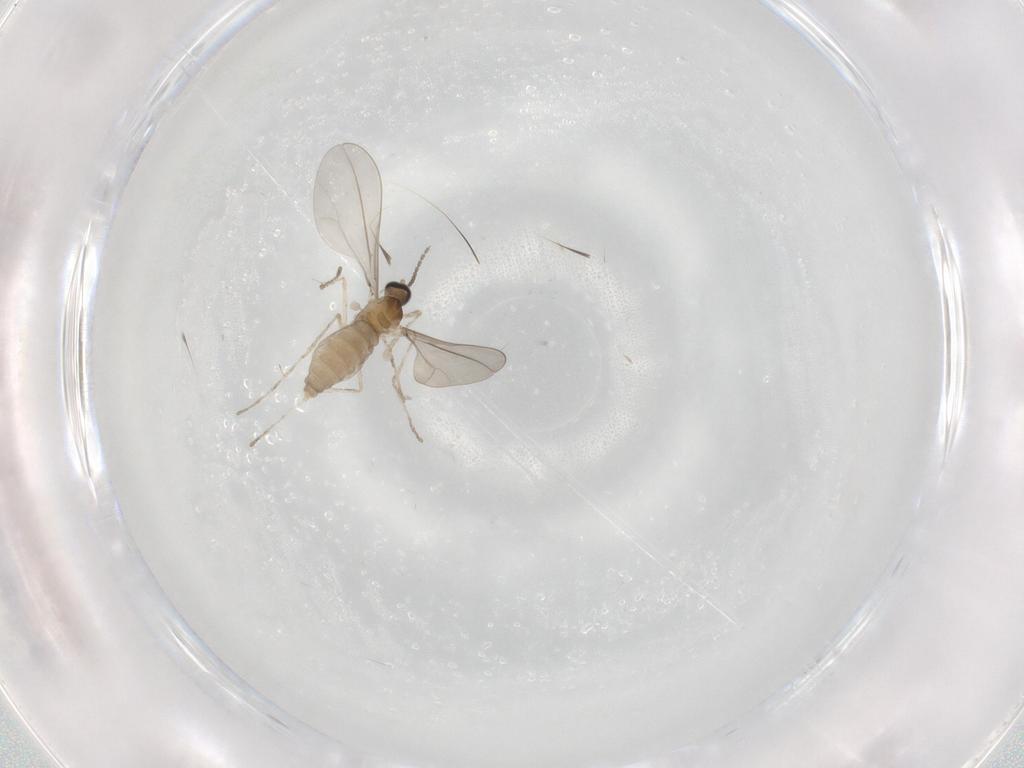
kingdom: Animalia
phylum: Arthropoda
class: Insecta
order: Diptera
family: Cecidomyiidae
